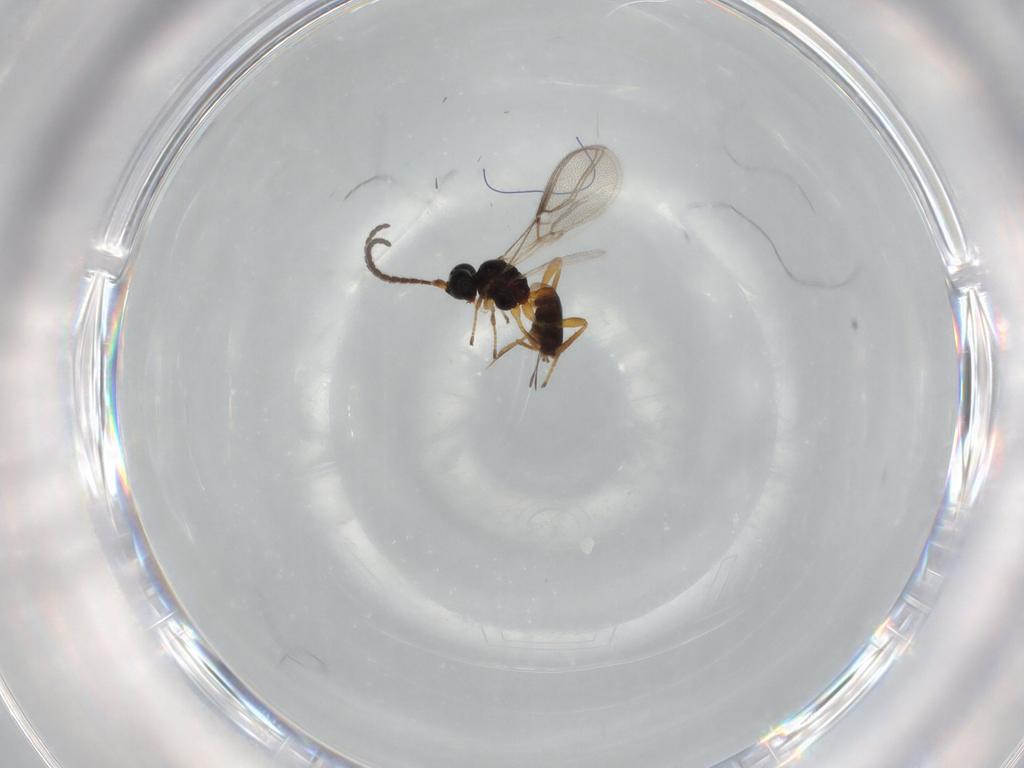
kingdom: Animalia
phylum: Arthropoda
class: Insecta
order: Hymenoptera
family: Braconidae
